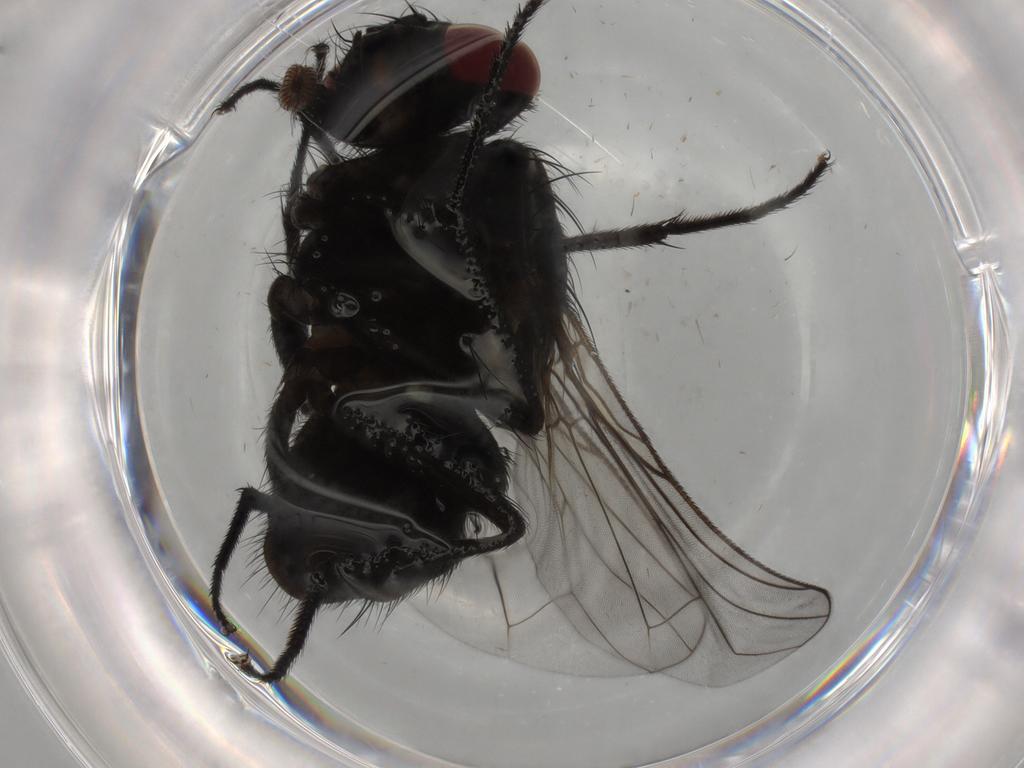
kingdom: Animalia
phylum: Arthropoda
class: Insecta
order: Diptera
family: Muscidae
